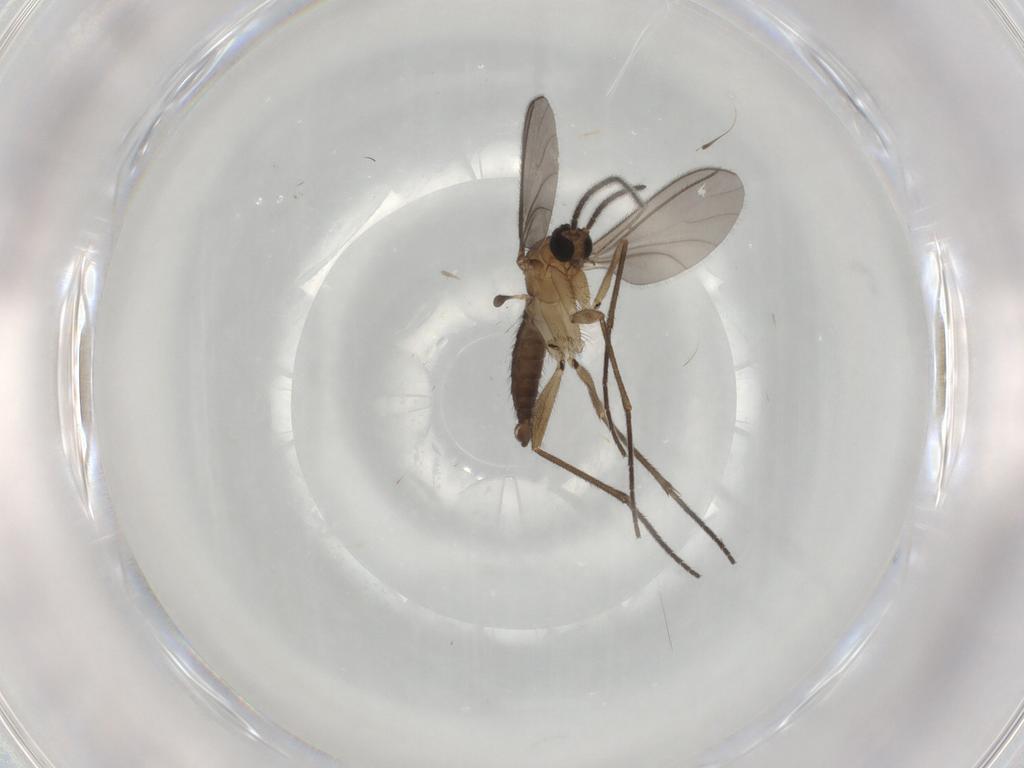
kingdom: Animalia
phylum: Arthropoda
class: Insecta
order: Diptera
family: Sciaridae
